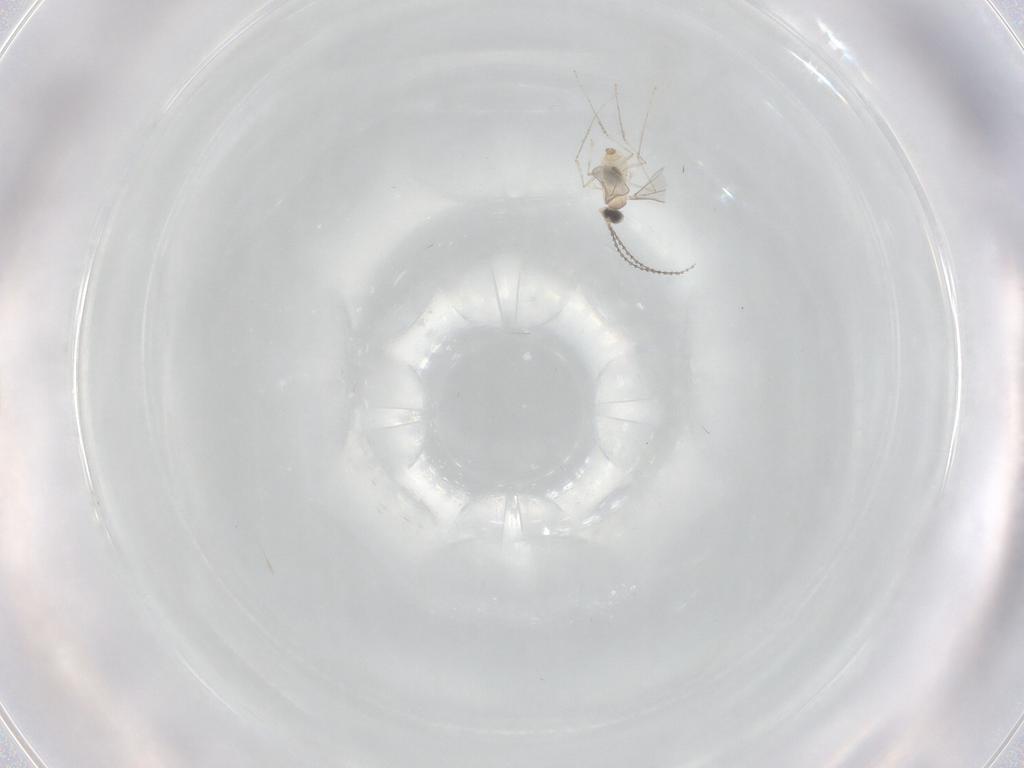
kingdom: Animalia
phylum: Arthropoda
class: Insecta
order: Diptera
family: Cecidomyiidae
